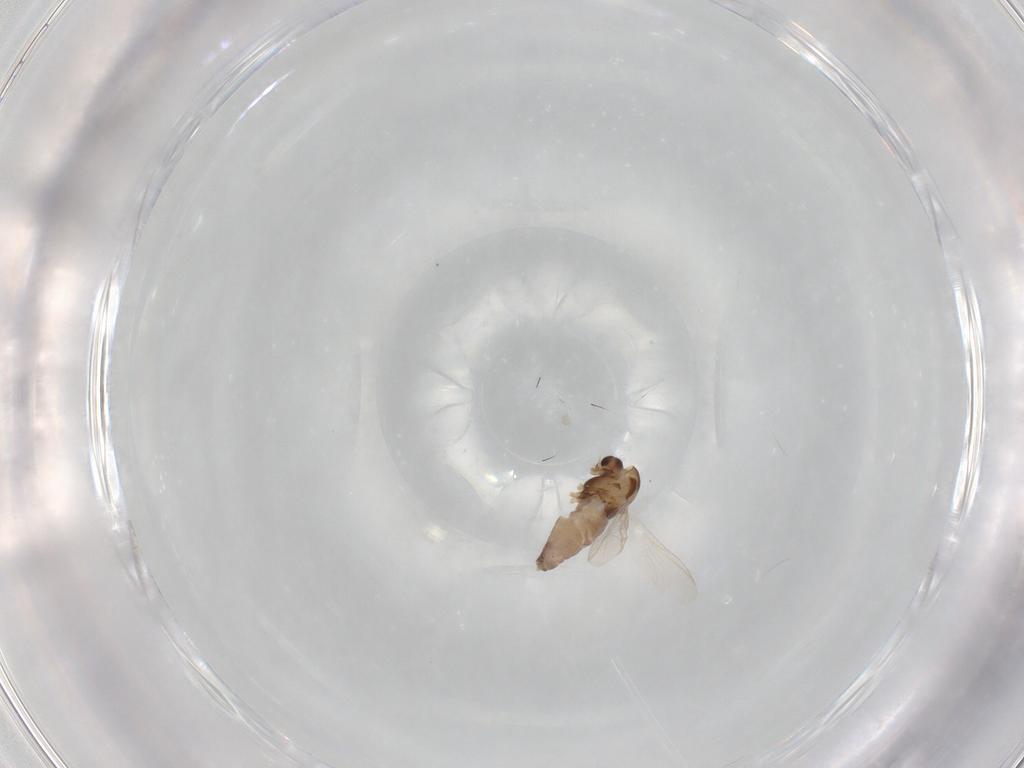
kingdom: Animalia
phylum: Arthropoda
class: Insecta
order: Diptera
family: Chironomidae
